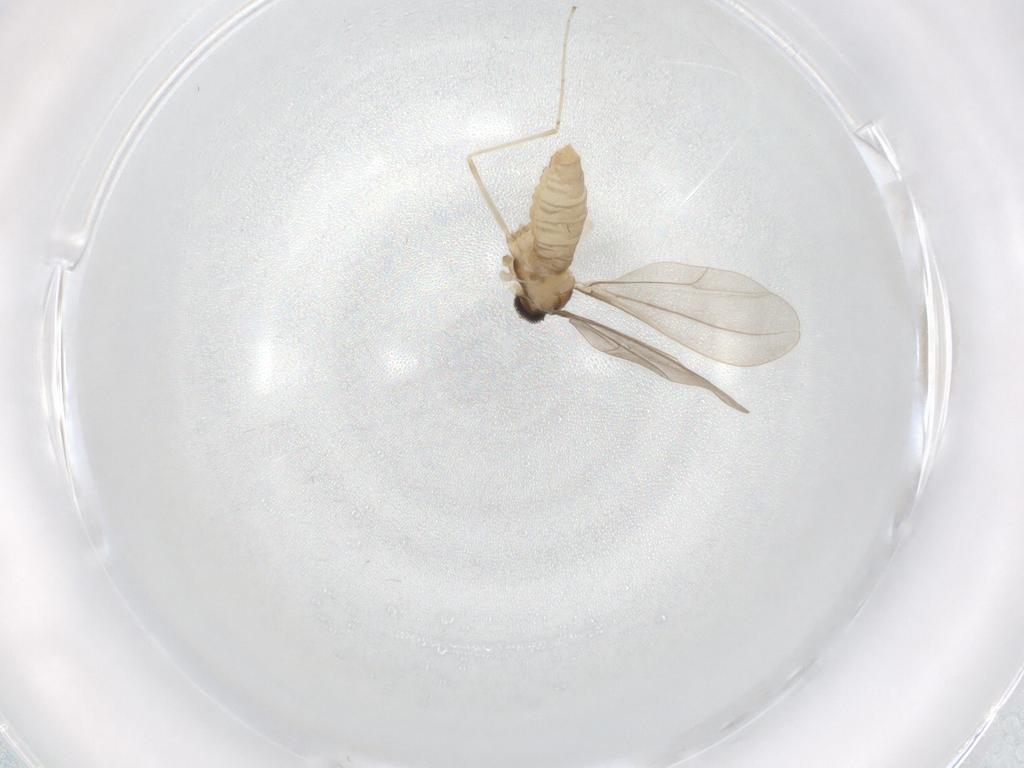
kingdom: Animalia
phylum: Arthropoda
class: Insecta
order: Diptera
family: Cecidomyiidae
